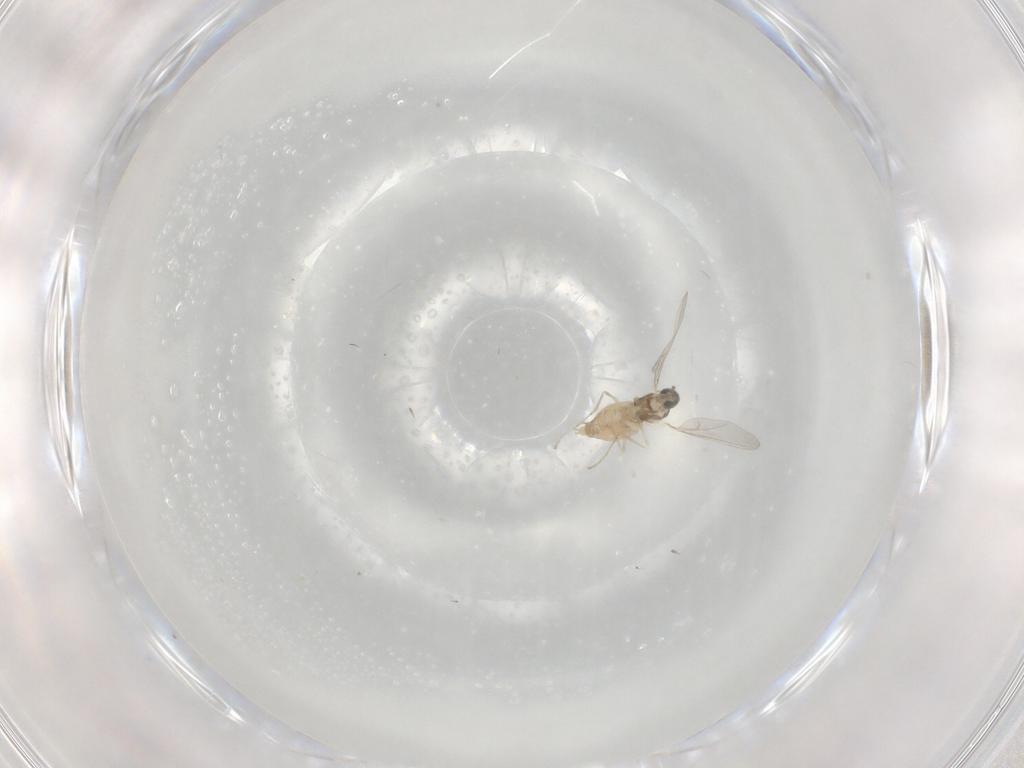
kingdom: Animalia
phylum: Arthropoda
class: Insecta
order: Diptera
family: Cecidomyiidae
